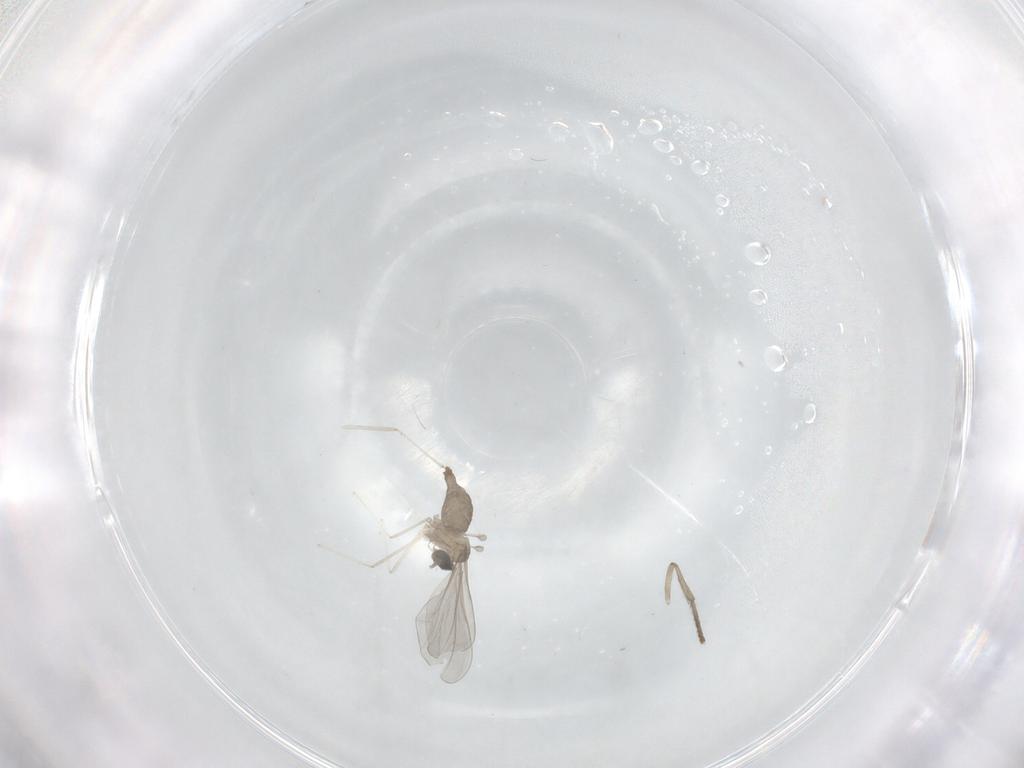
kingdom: Animalia
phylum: Arthropoda
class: Insecta
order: Diptera
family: Cecidomyiidae
